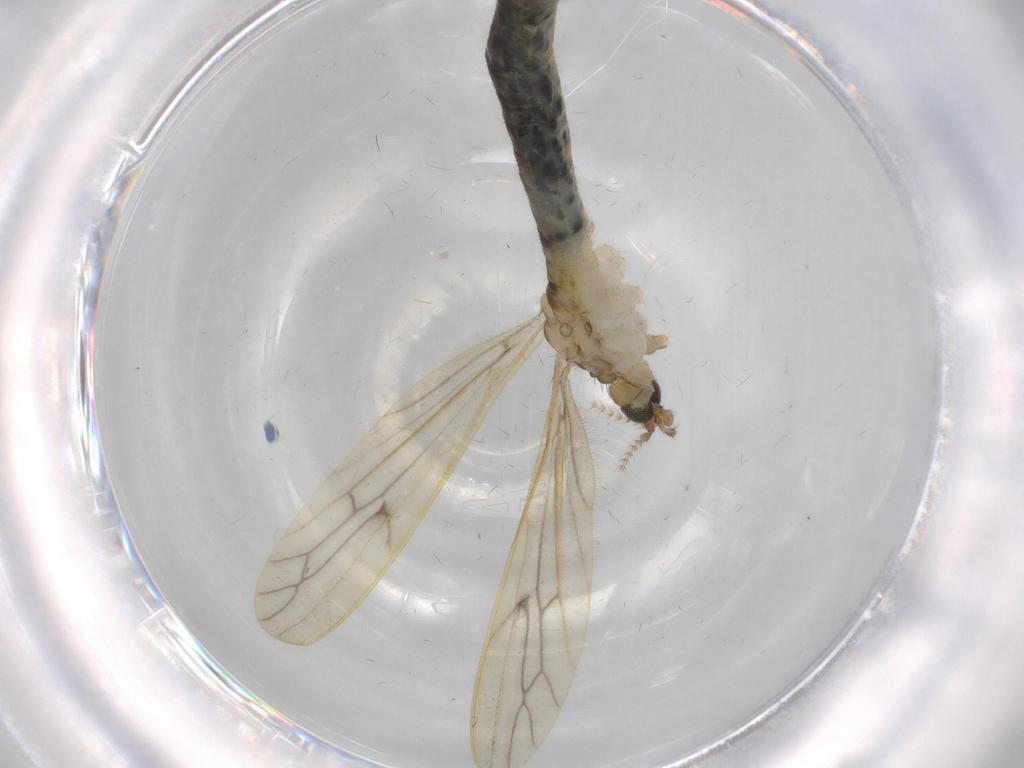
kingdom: Animalia
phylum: Arthropoda
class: Insecta
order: Diptera
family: Limoniidae
